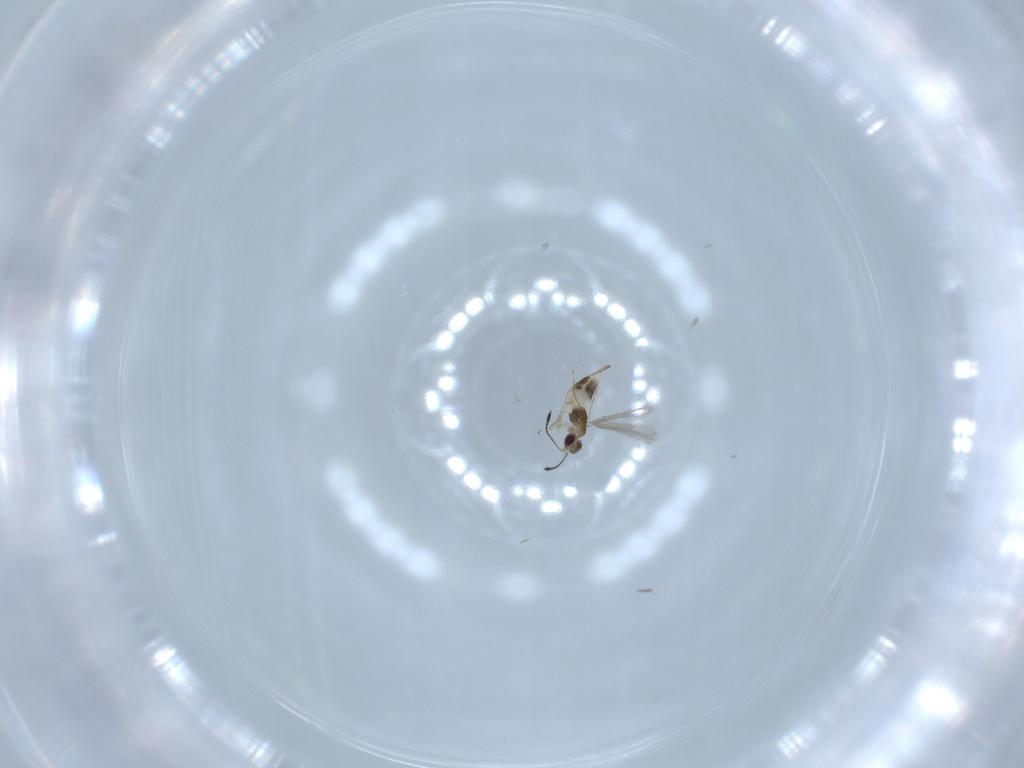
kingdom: Animalia
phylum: Arthropoda
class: Insecta
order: Hymenoptera
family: Mymaridae
